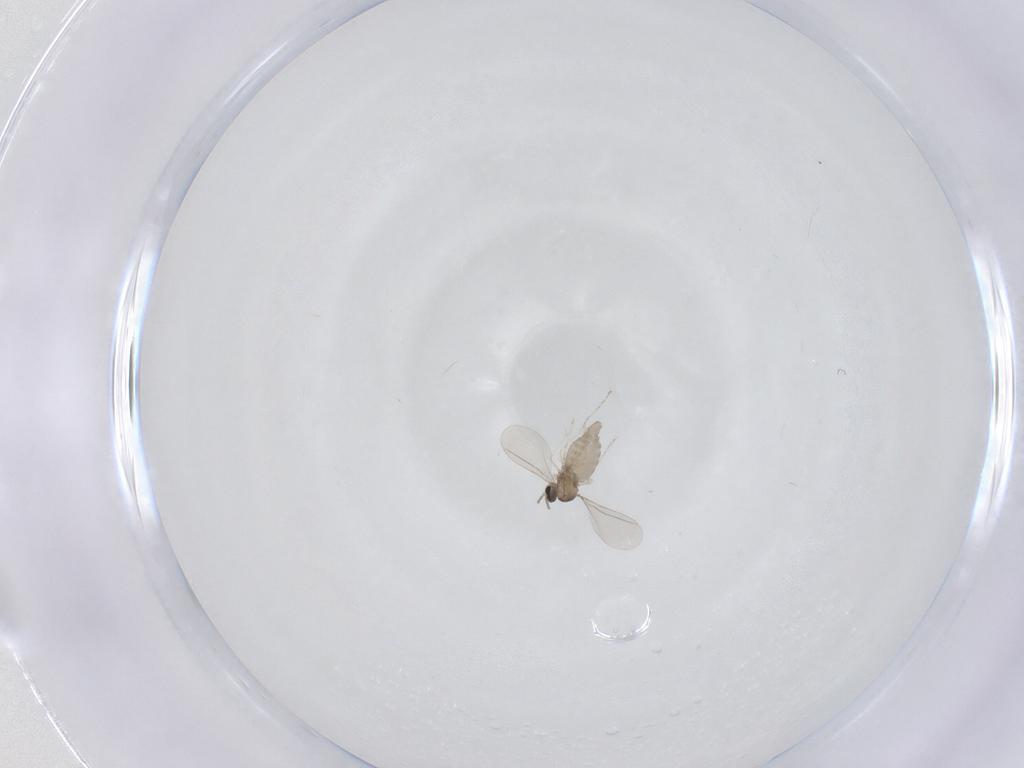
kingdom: Animalia
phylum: Arthropoda
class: Insecta
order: Diptera
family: Cecidomyiidae
